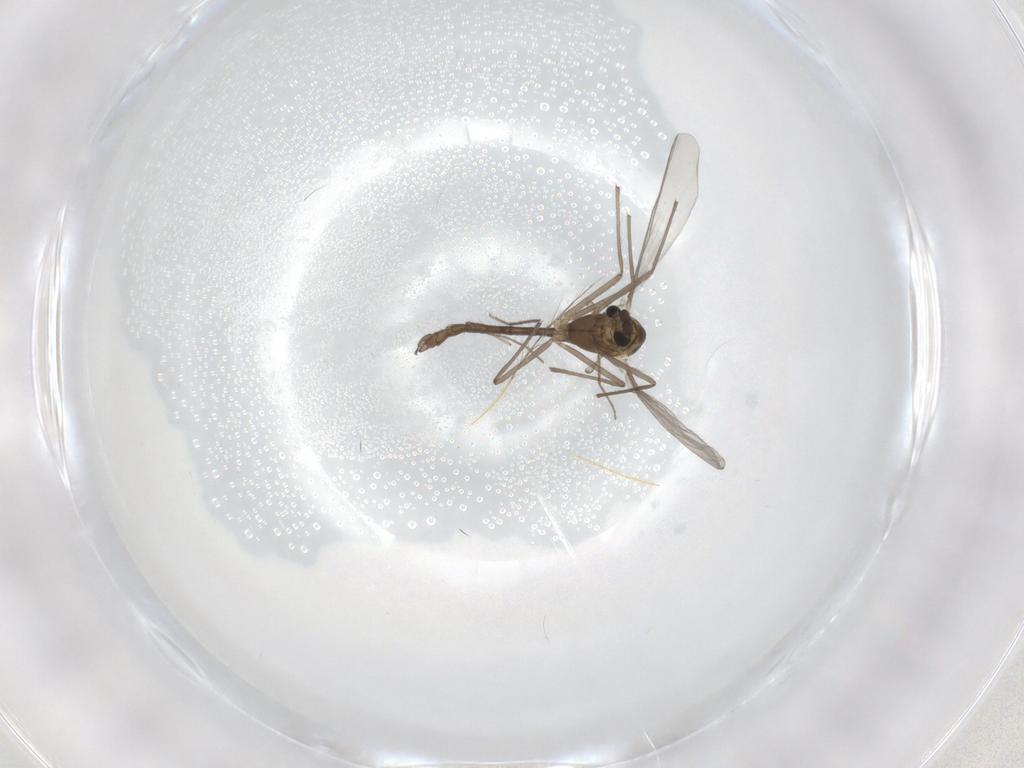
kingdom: Animalia
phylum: Arthropoda
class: Insecta
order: Diptera
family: Chironomidae
